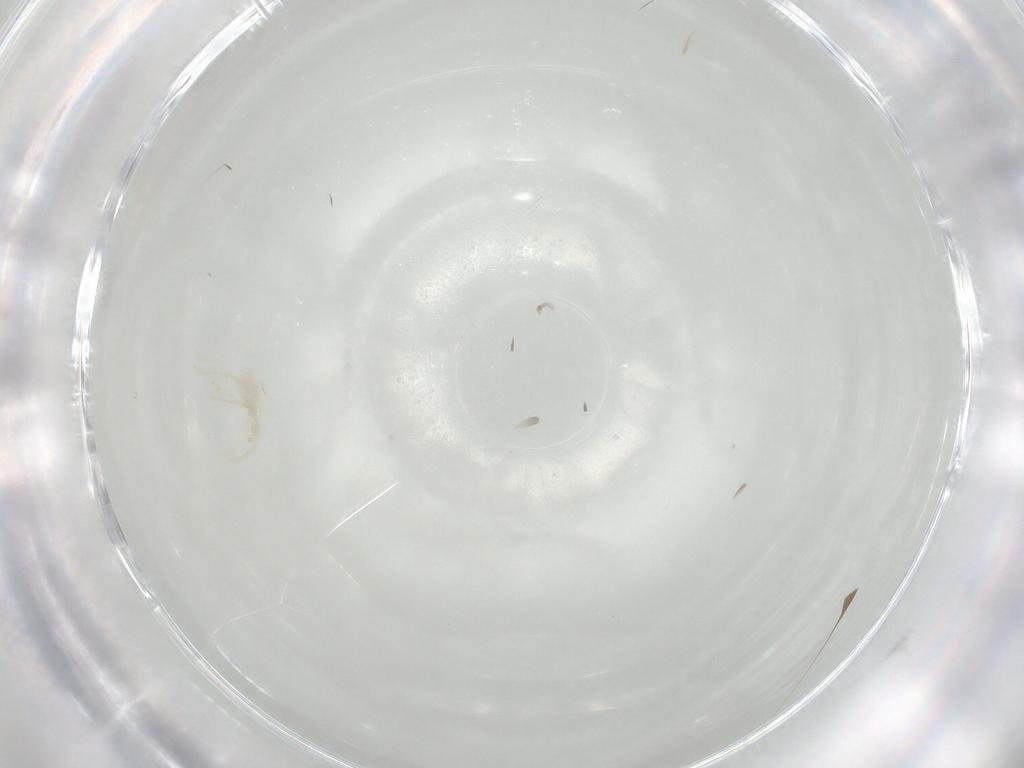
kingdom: Animalia
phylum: Arthropoda
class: Arachnida
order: Trombidiformes
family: Erythraeidae
